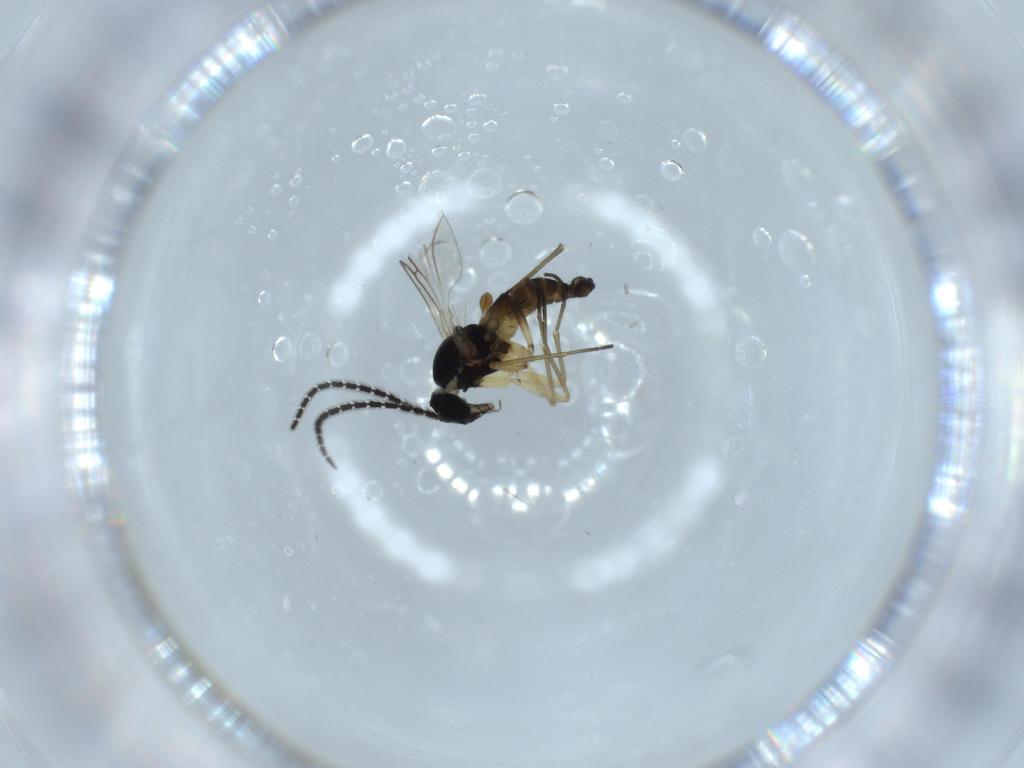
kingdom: Animalia
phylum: Arthropoda
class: Insecta
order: Diptera
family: Sciaridae
